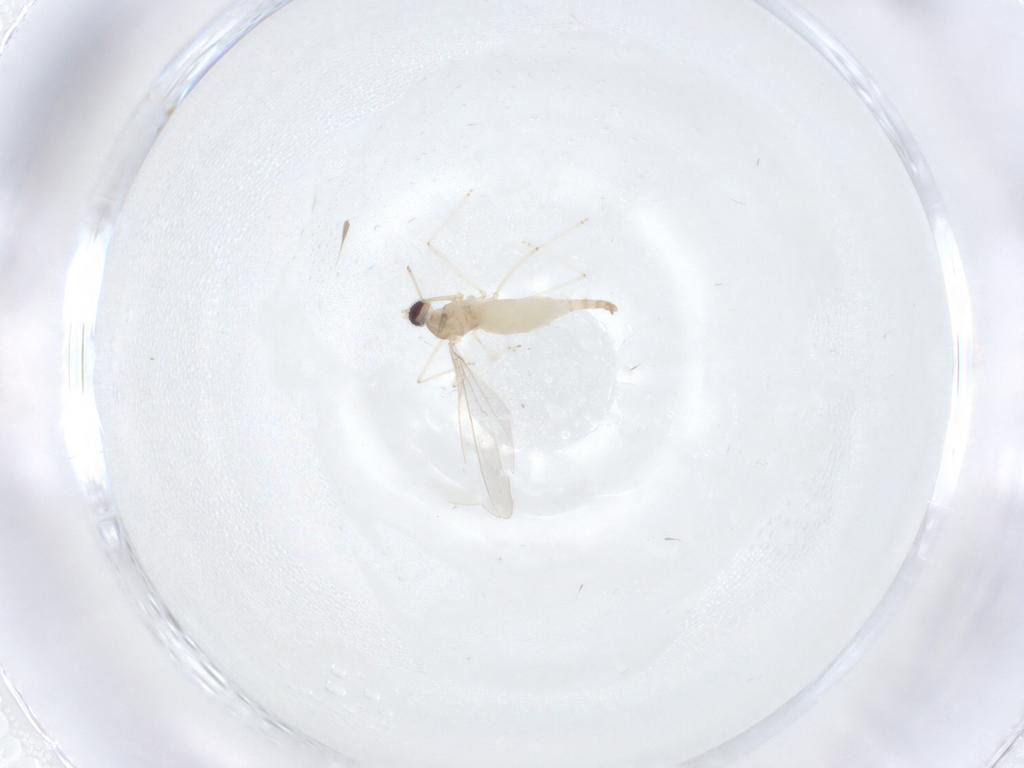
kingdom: Animalia
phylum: Arthropoda
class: Insecta
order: Diptera
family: Cecidomyiidae
